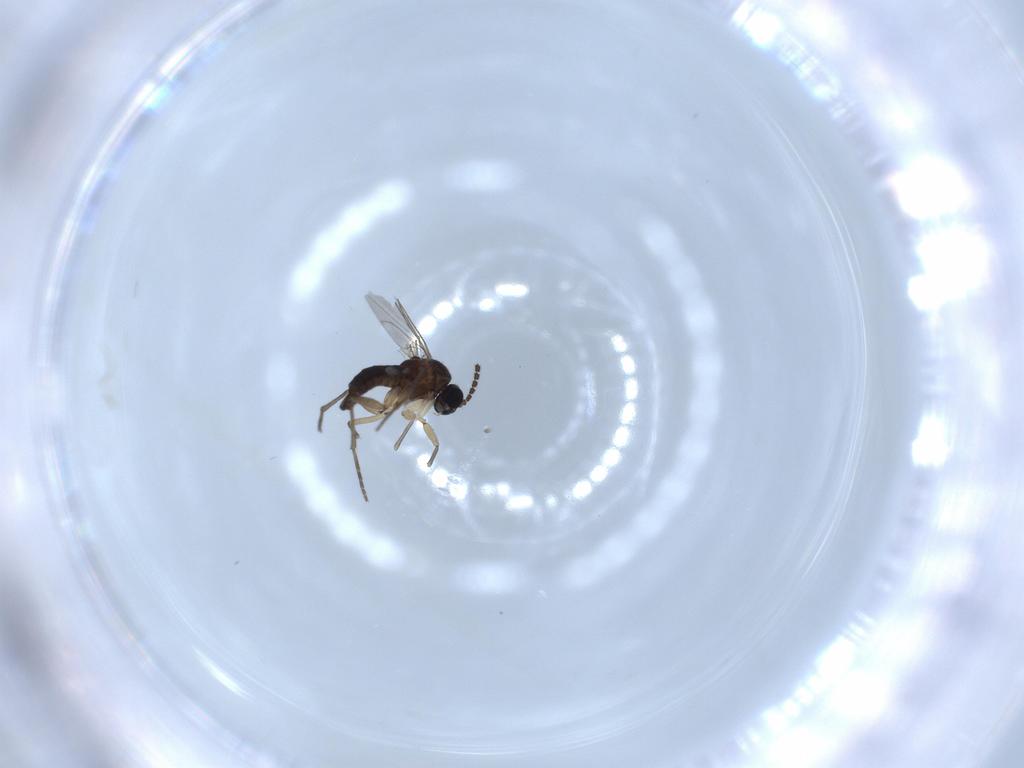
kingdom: Animalia
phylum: Arthropoda
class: Insecta
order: Diptera
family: Sciaridae
